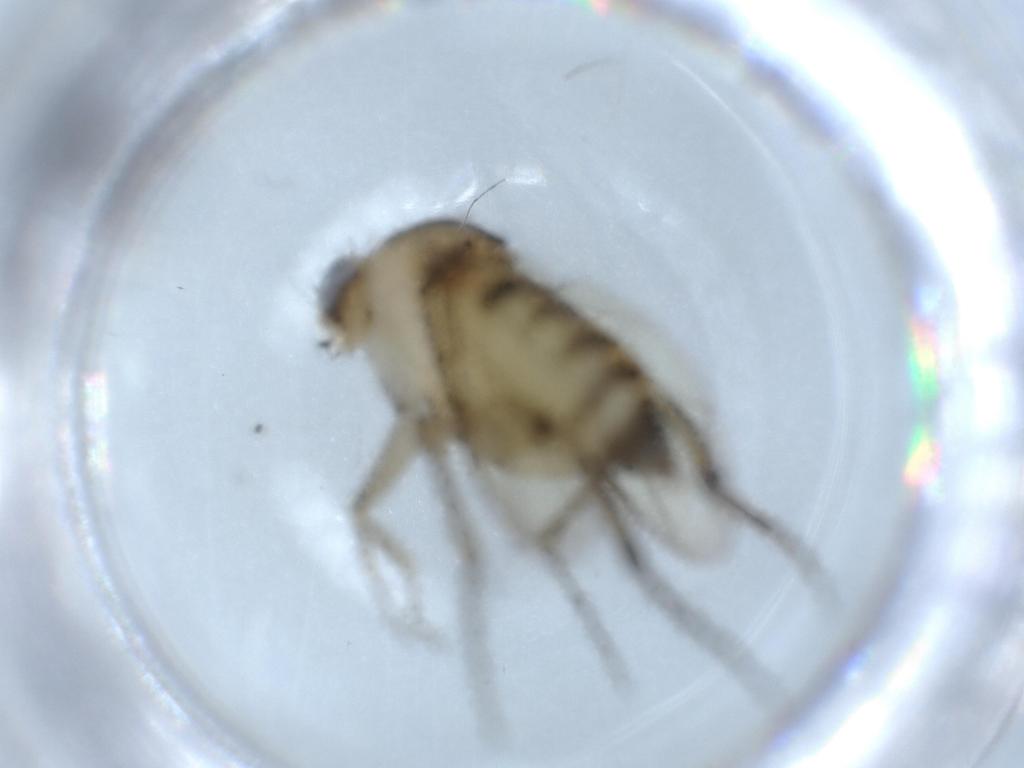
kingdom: Animalia
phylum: Arthropoda
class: Insecta
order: Diptera
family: Phoridae
